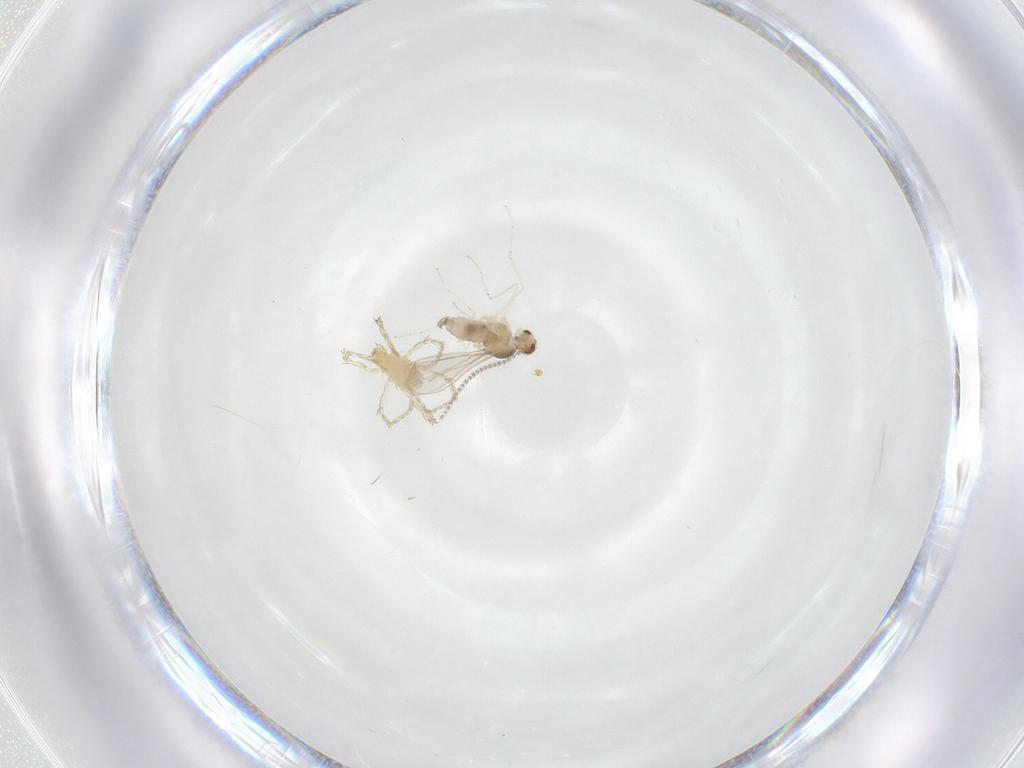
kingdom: Animalia
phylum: Arthropoda
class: Insecta
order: Diptera
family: Cecidomyiidae
